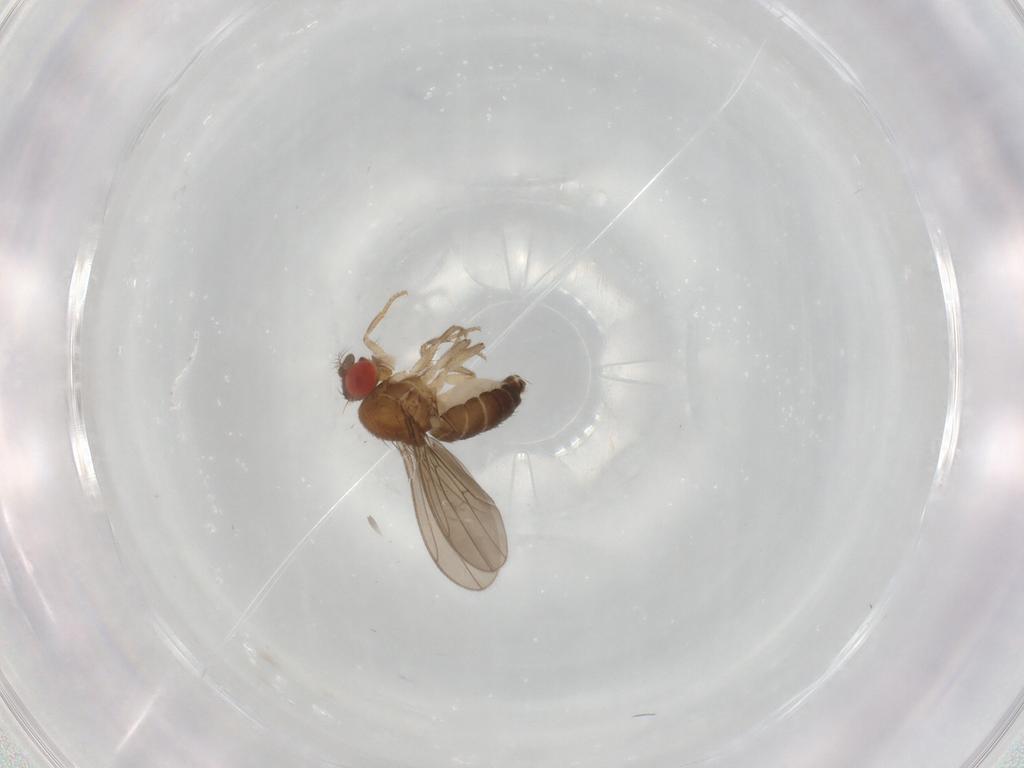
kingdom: Animalia
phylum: Arthropoda
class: Insecta
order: Diptera
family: Drosophilidae
